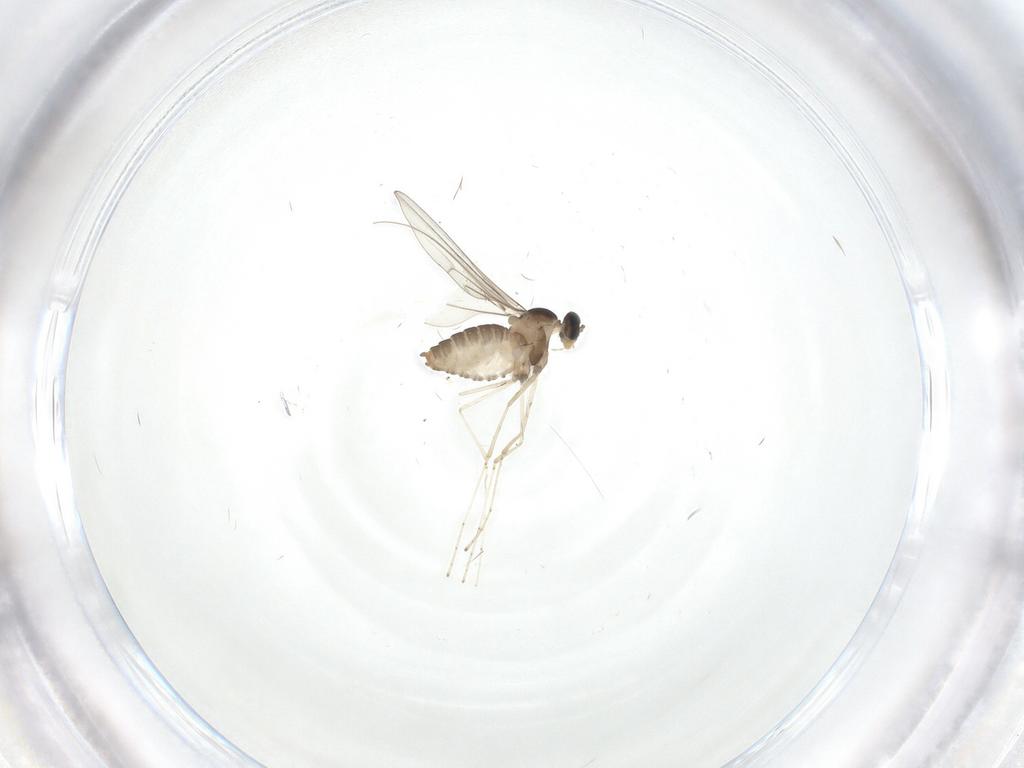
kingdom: Animalia
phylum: Arthropoda
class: Insecta
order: Diptera
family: Cecidomyiidae
